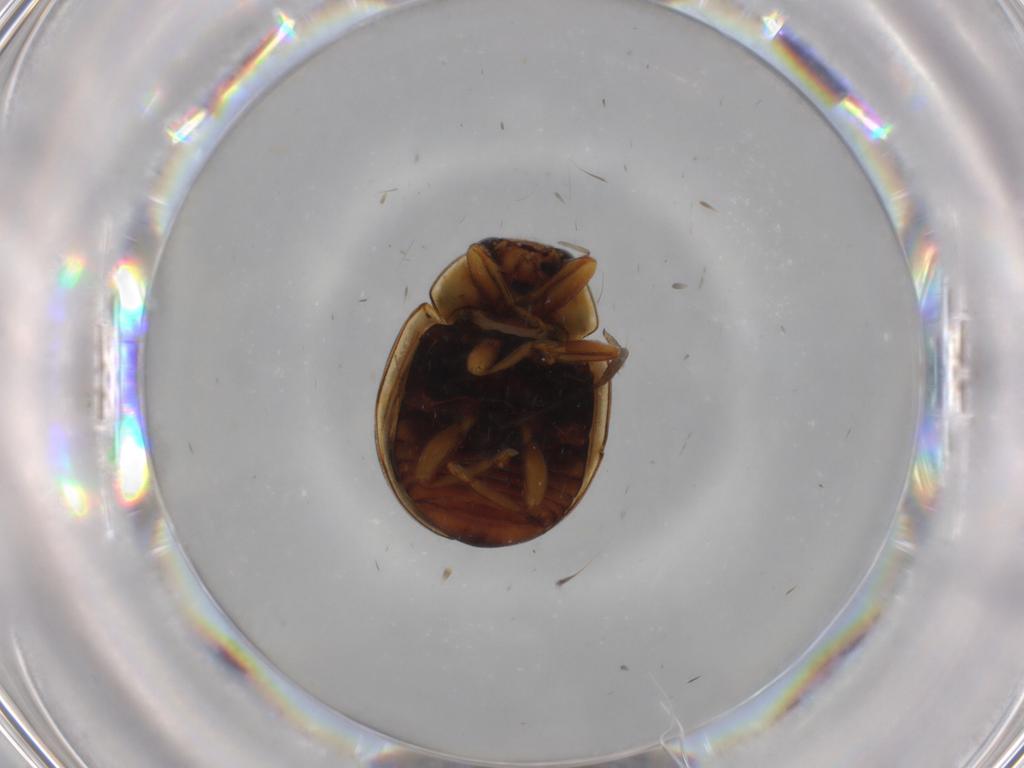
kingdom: Animalia
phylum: Arthropoda
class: Insecta
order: Coleoptera
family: Coccinellidae
